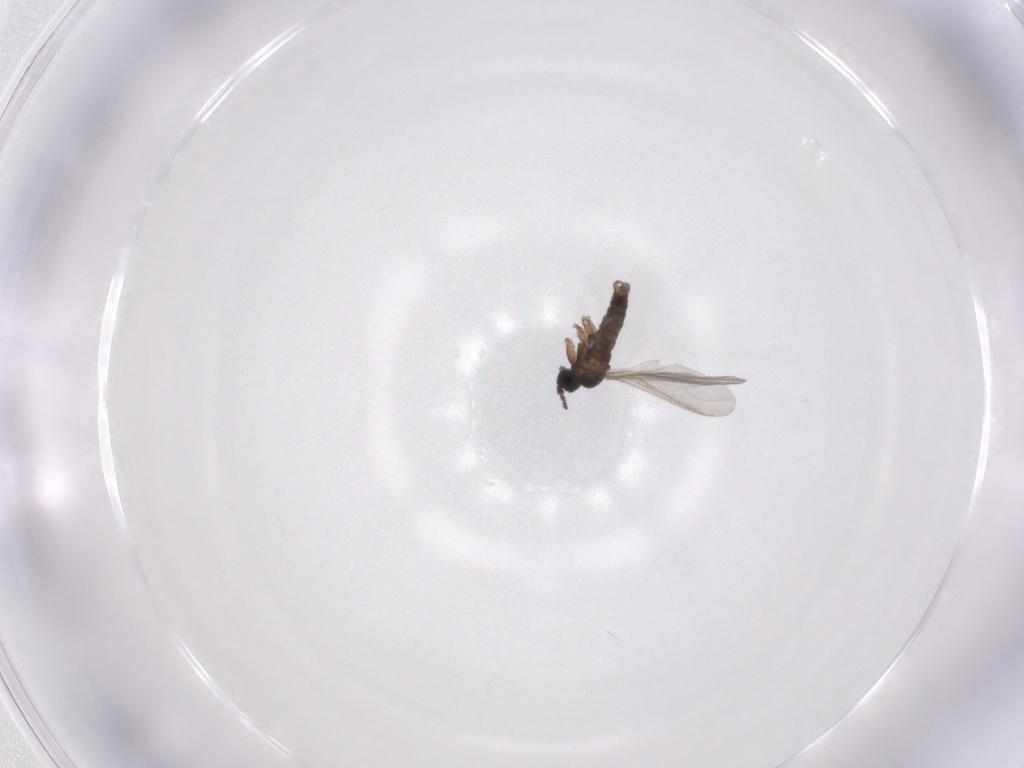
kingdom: Animalia
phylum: Arthropoda
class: Insecta
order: Diptera
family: Sciaridae
